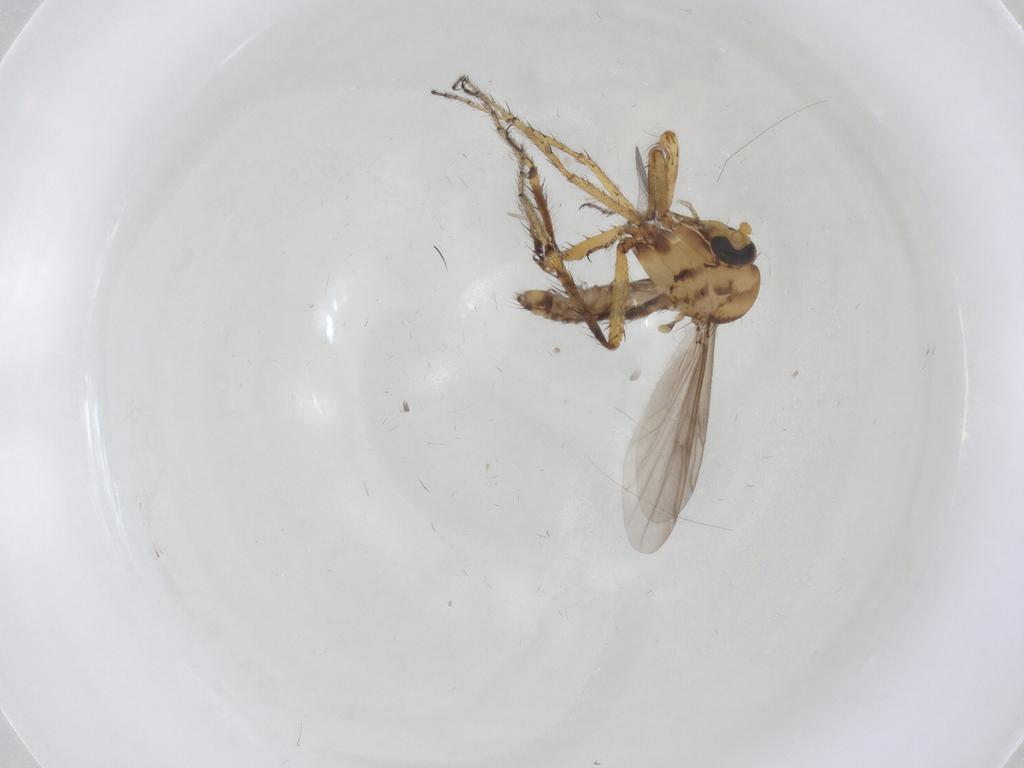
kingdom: Animalia
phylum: Arthropoda
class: Insecta
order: Diptera
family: Cecidomyiidae
